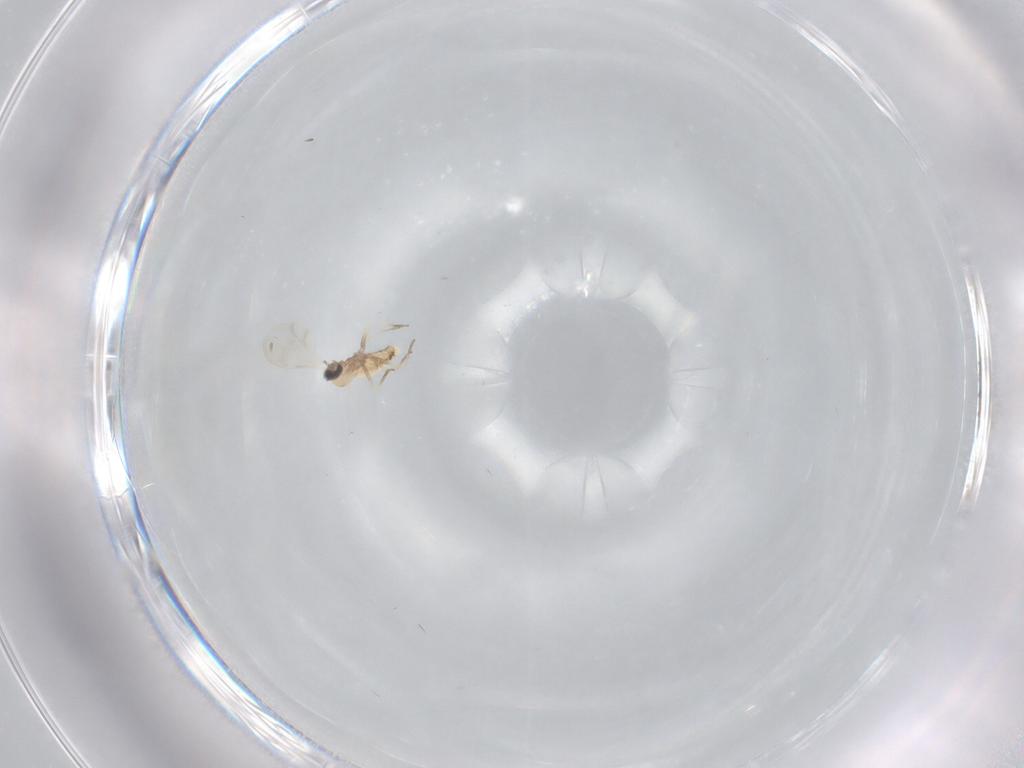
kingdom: Animalia
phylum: Arthropoda
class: Insecta
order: Diptera
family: Cecidomyiidae
